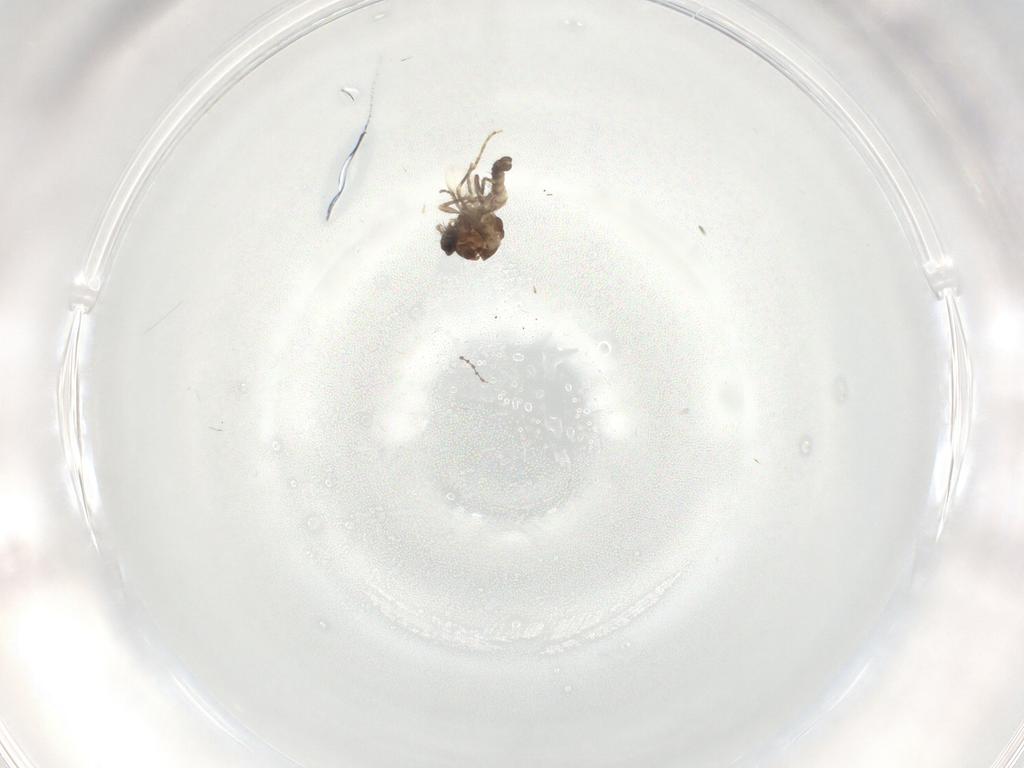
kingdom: Animalia
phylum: Arthropoda
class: Insecta
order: Diptera
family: Ceratopogonidae
